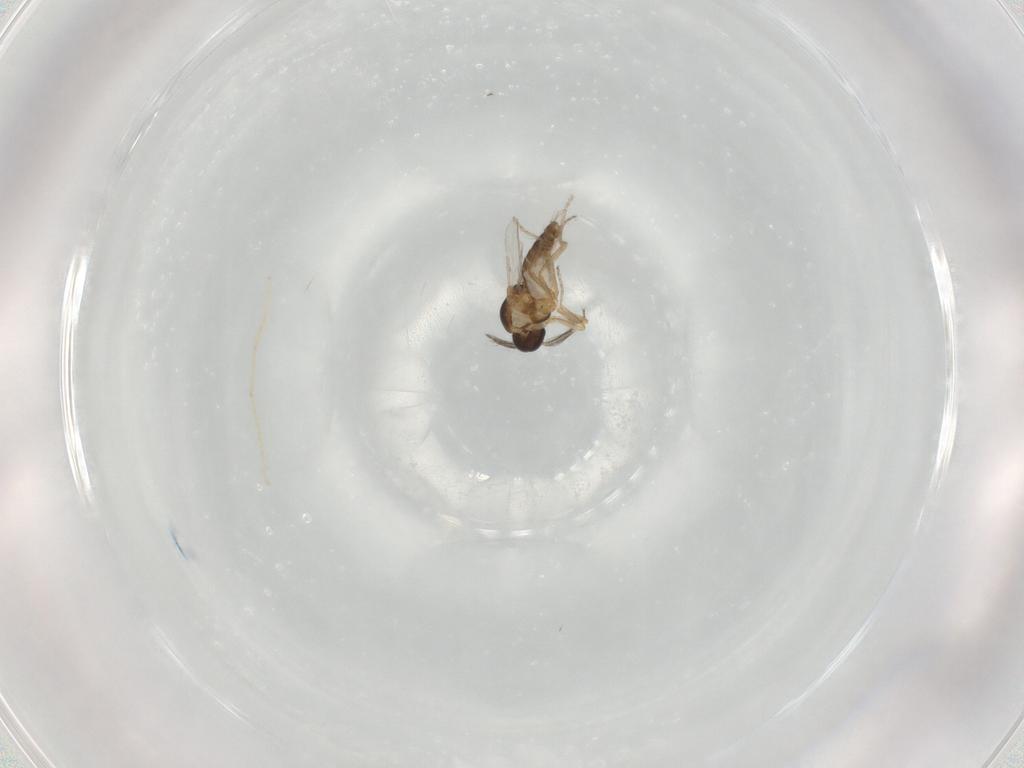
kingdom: Animalia
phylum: Arthropoda
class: Insecta
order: Diptera
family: Ceratopogonidae
